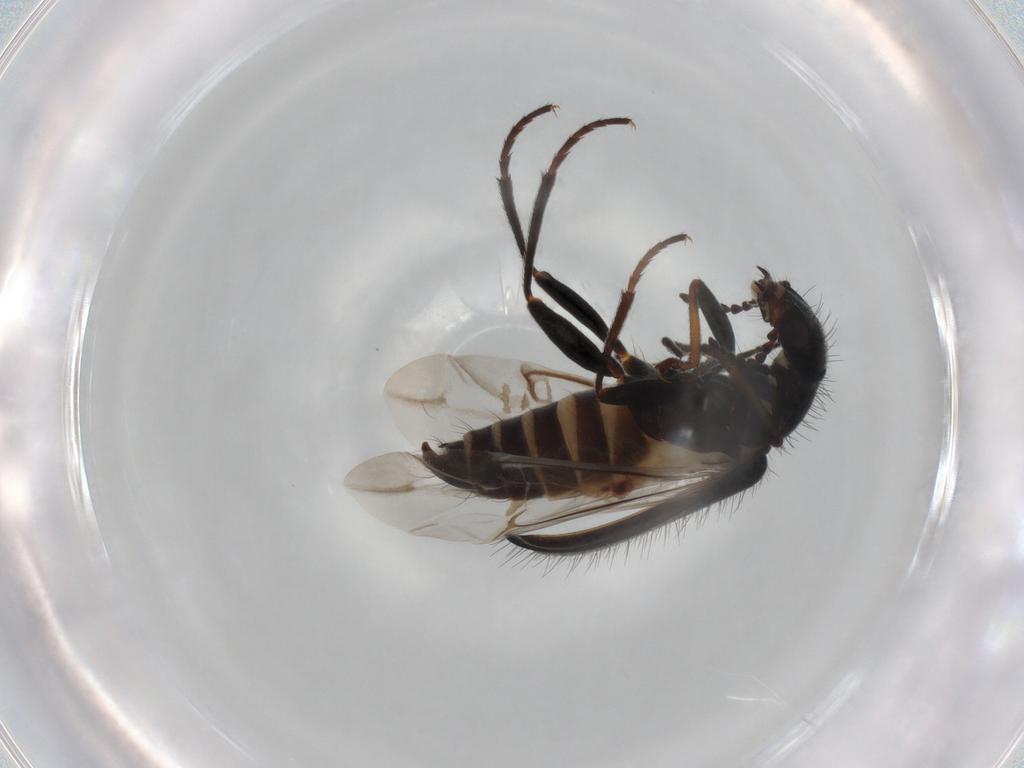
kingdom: Animalia
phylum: Arthropoda
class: Insecta
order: Coleoptera
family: Melyridae
